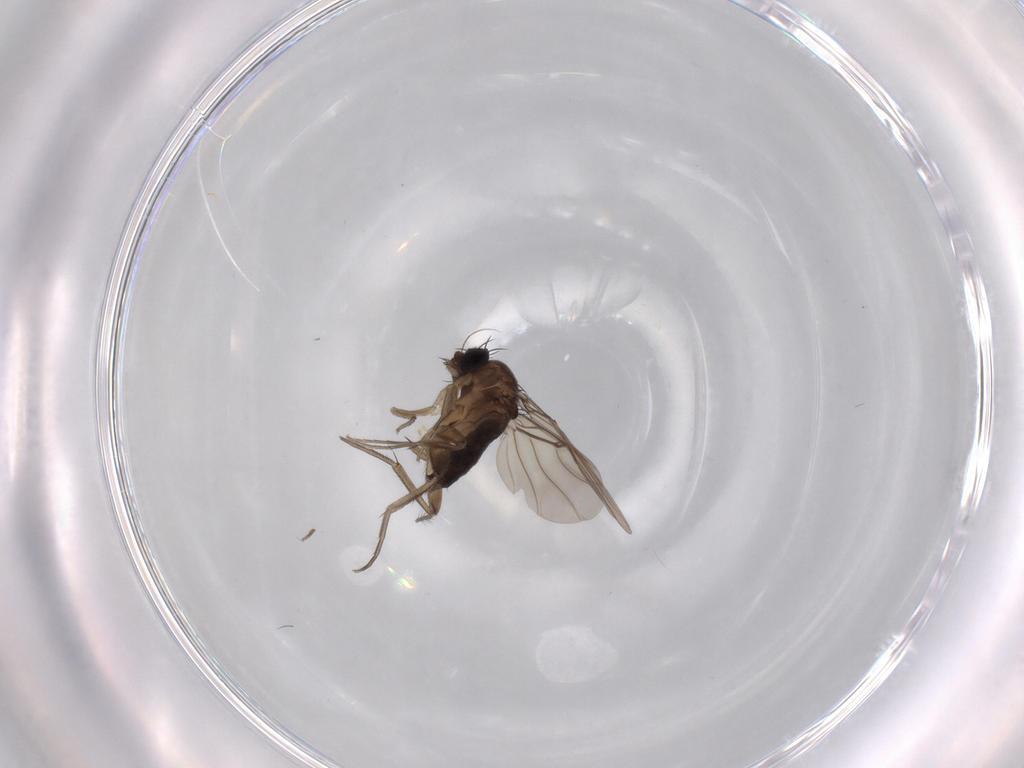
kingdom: Animalia
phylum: Arthropoda
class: Insecta
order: Diptera
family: Phoridae
